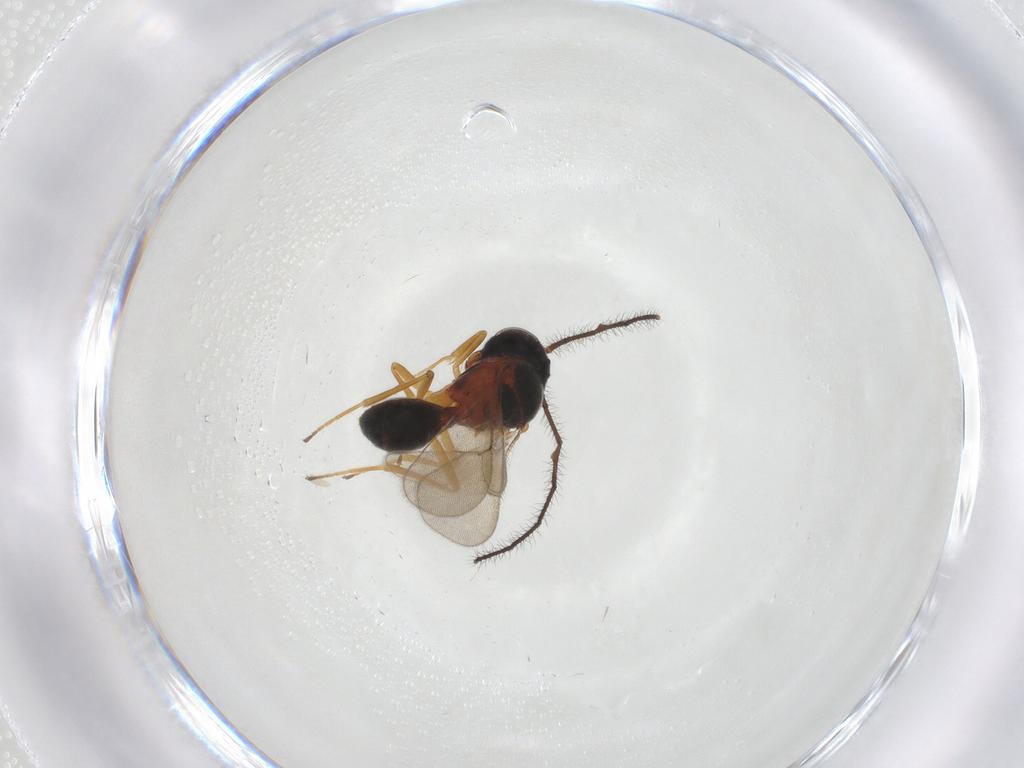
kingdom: Animalia
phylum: Arthropoda
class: Insecta
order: Hymenoptera
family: Scelionidae
